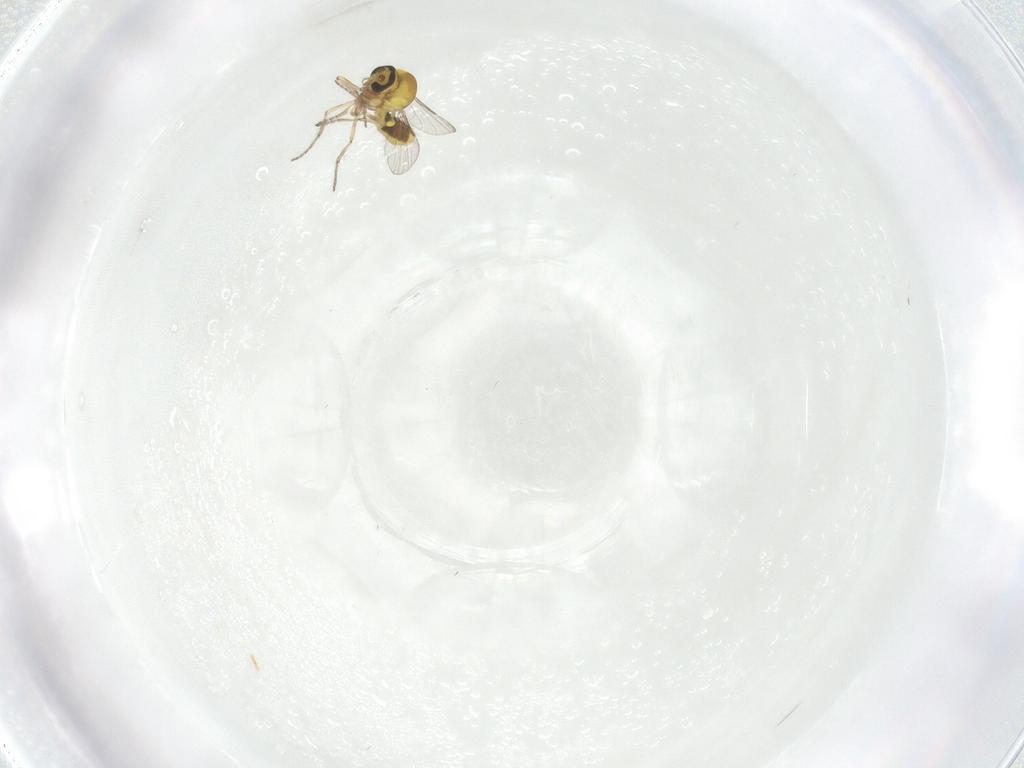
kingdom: Animalia
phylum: Arthropoda
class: Insecta
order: Diptera
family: Ceratopogonidae
